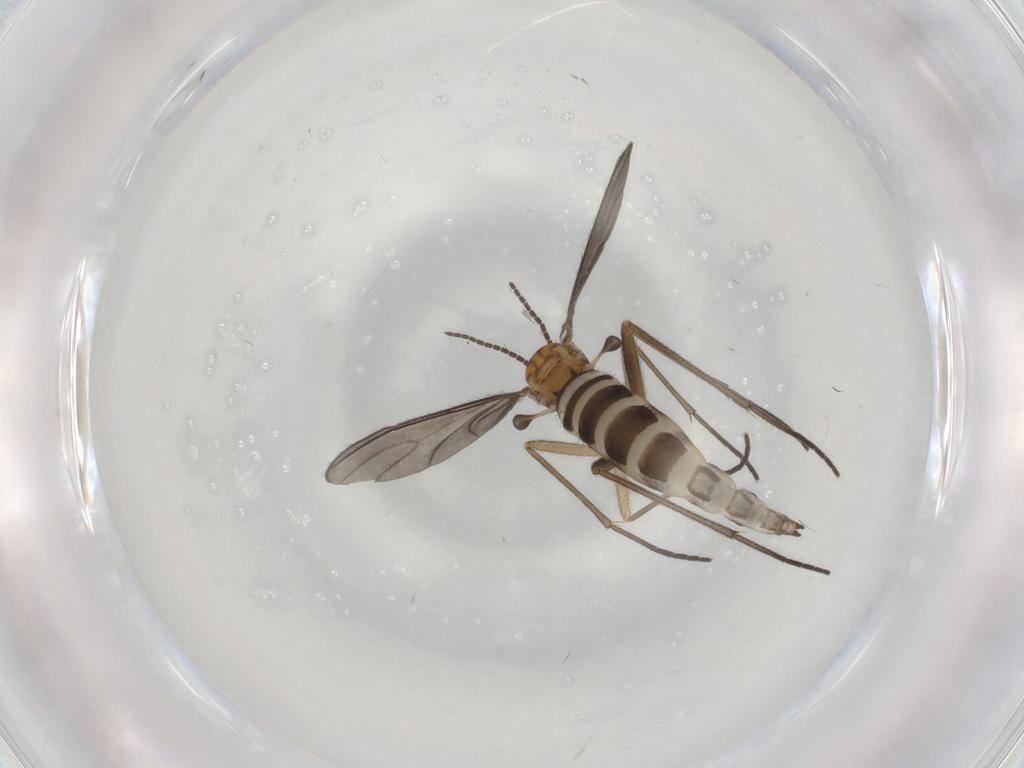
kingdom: Animalia
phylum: Arthropoda
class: Insecta
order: Diptera
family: Sciaridae
